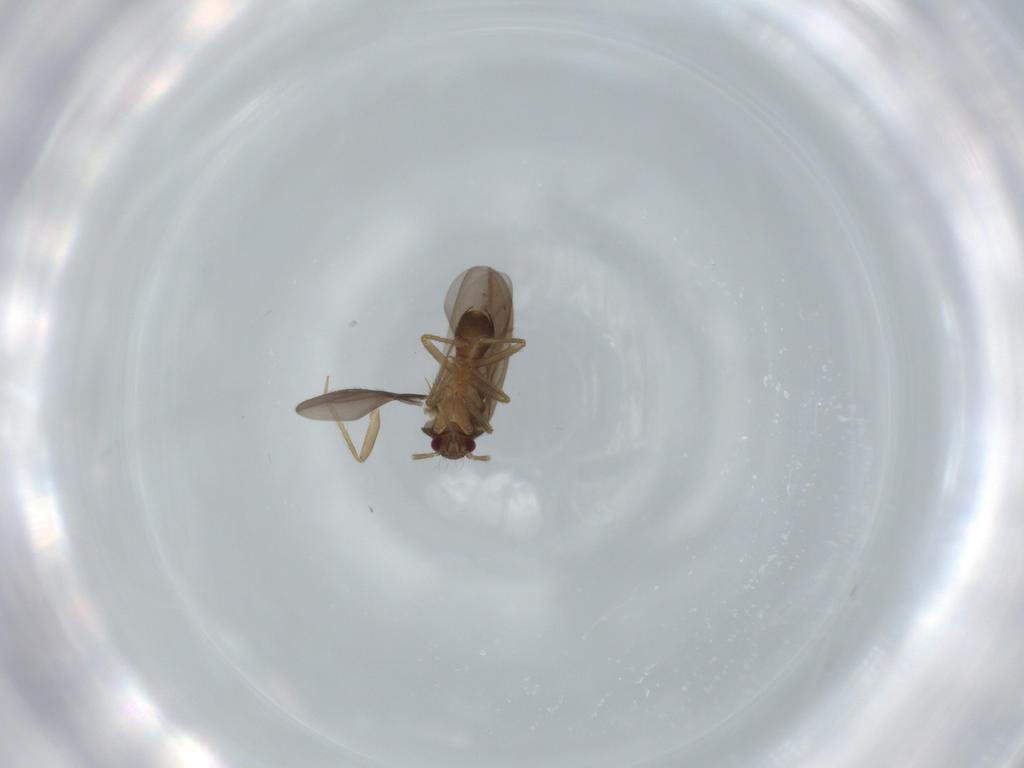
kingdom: Animalia
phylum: Arthropoda
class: Insecta
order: Hemiptera
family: Ceratocombidae
